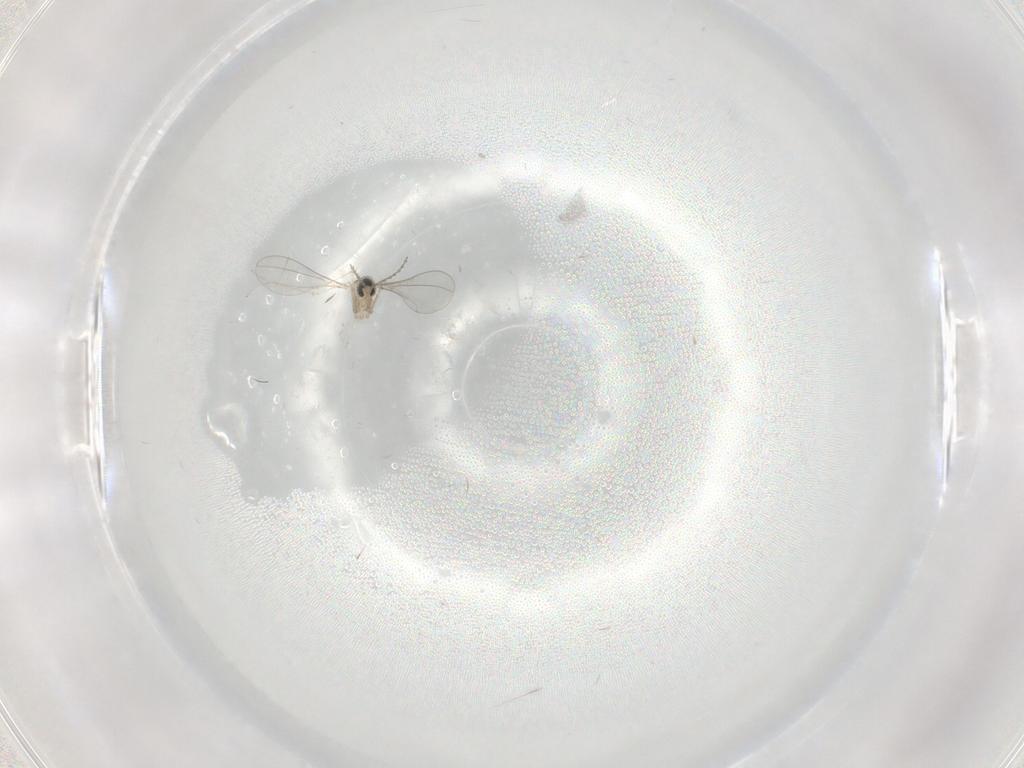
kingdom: Animalia
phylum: Arthropoda
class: Insecta
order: Diptera
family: Cecidomyiidae
